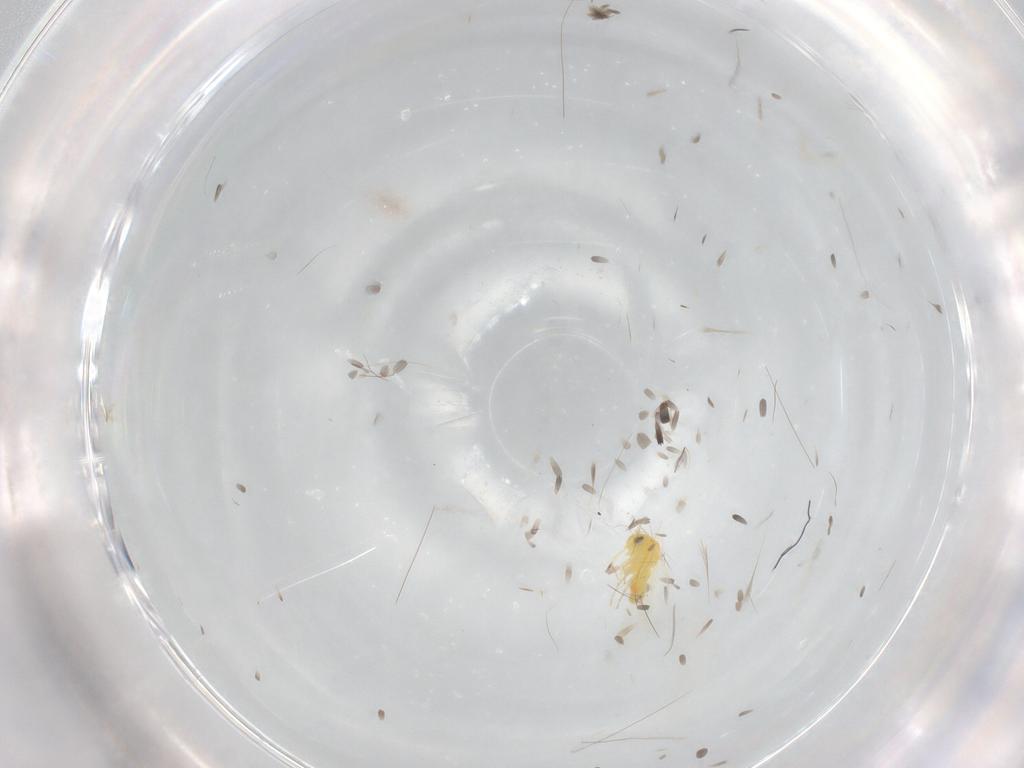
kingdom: Animalia
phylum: Arthropoda
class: Insecta
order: Hemiptera
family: Aleyrodidae
